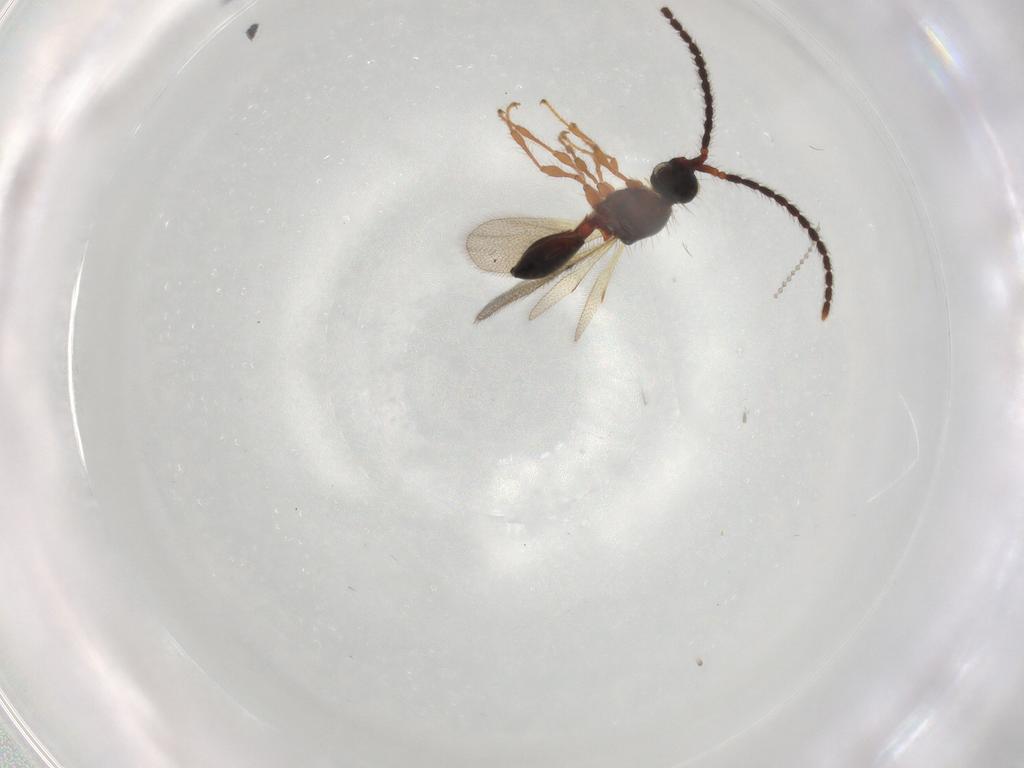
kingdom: Animalia
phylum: Arthropoda
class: Insecta
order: Hymenoptera
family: Diapriidae
